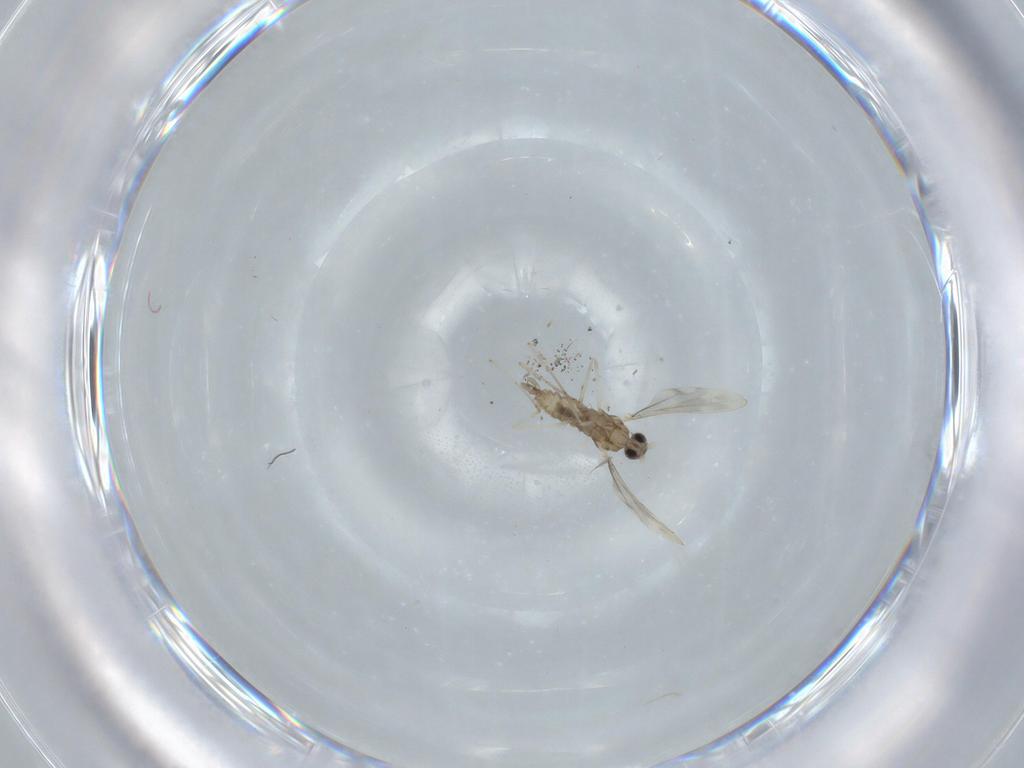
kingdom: Animalia
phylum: Arthropoda
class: Insecta
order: Diptera
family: Cecidomyiidae
